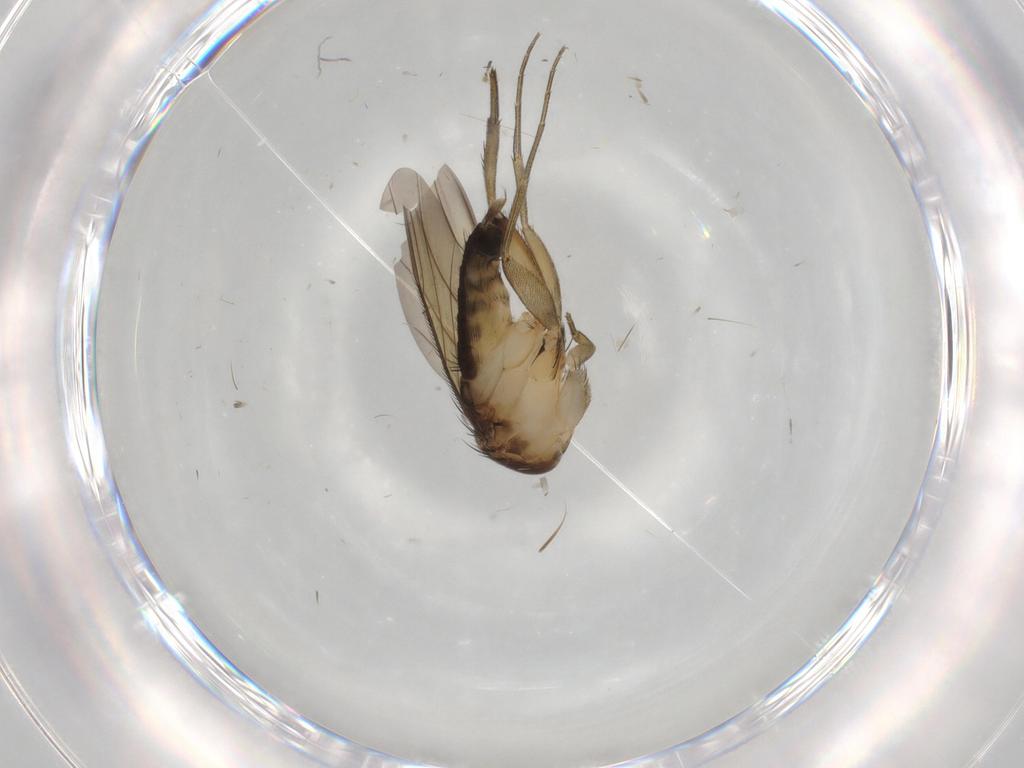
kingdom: Animalia
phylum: Arthropoda
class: Insecta
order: Diptera
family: Phoridae
